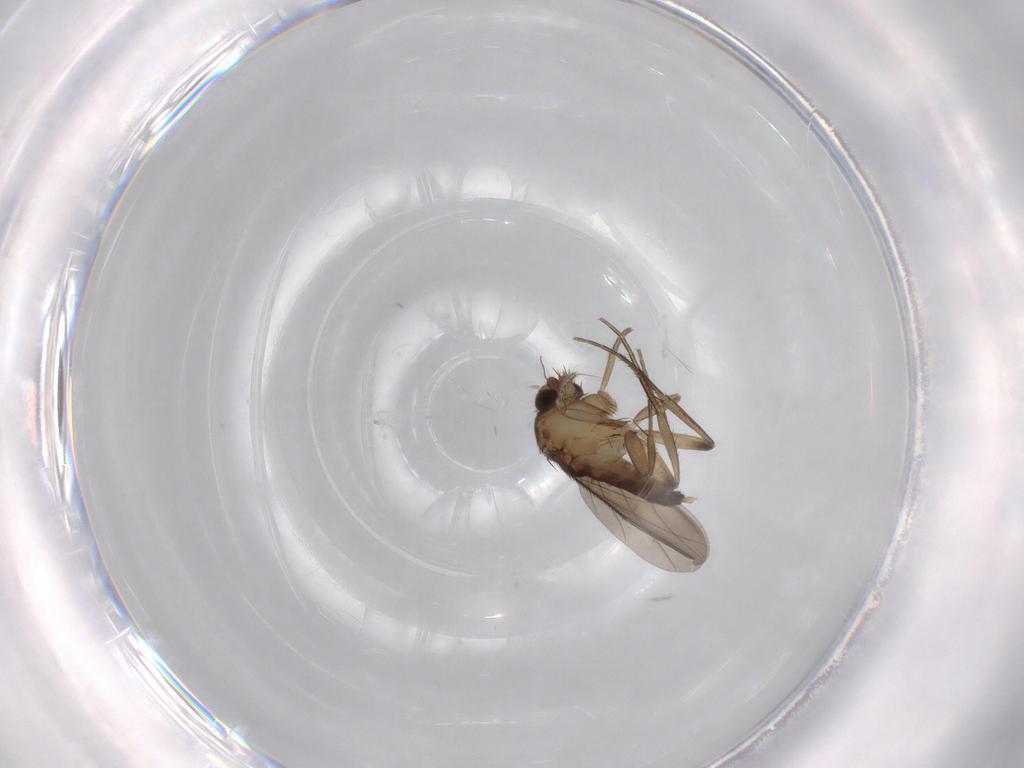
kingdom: Animalia
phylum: Arthropoda
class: Insecta
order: Diptera
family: Phoridae
